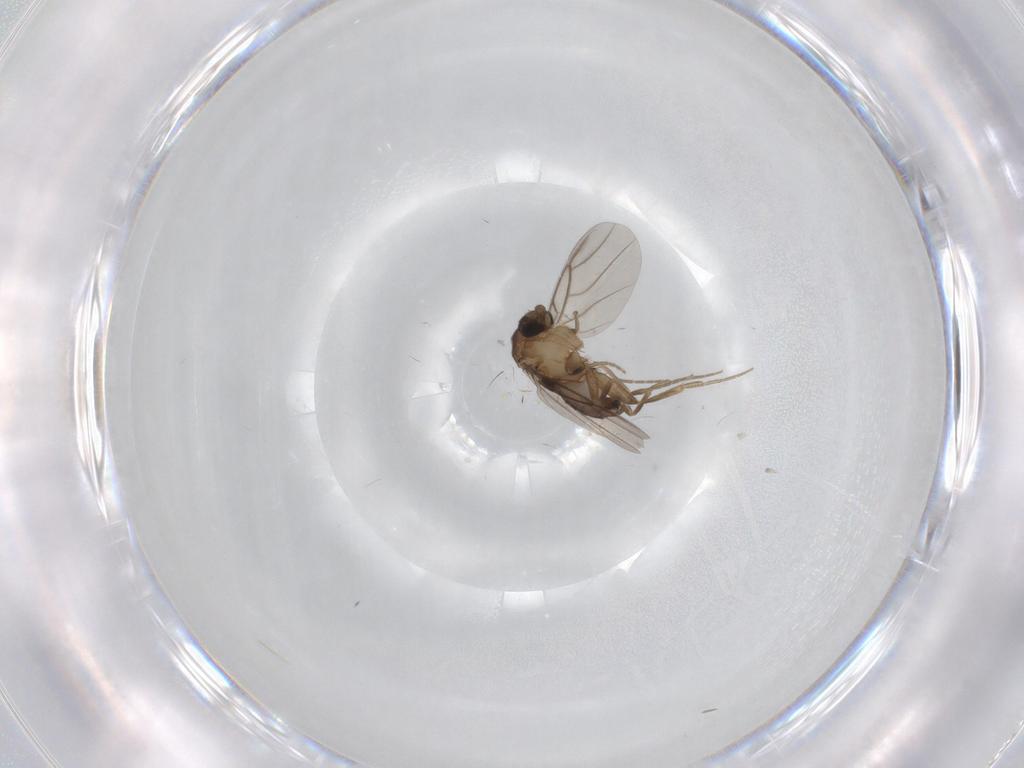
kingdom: Animalia
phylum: Arthropoda
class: Insecta
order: Diptera
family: Phoridae
